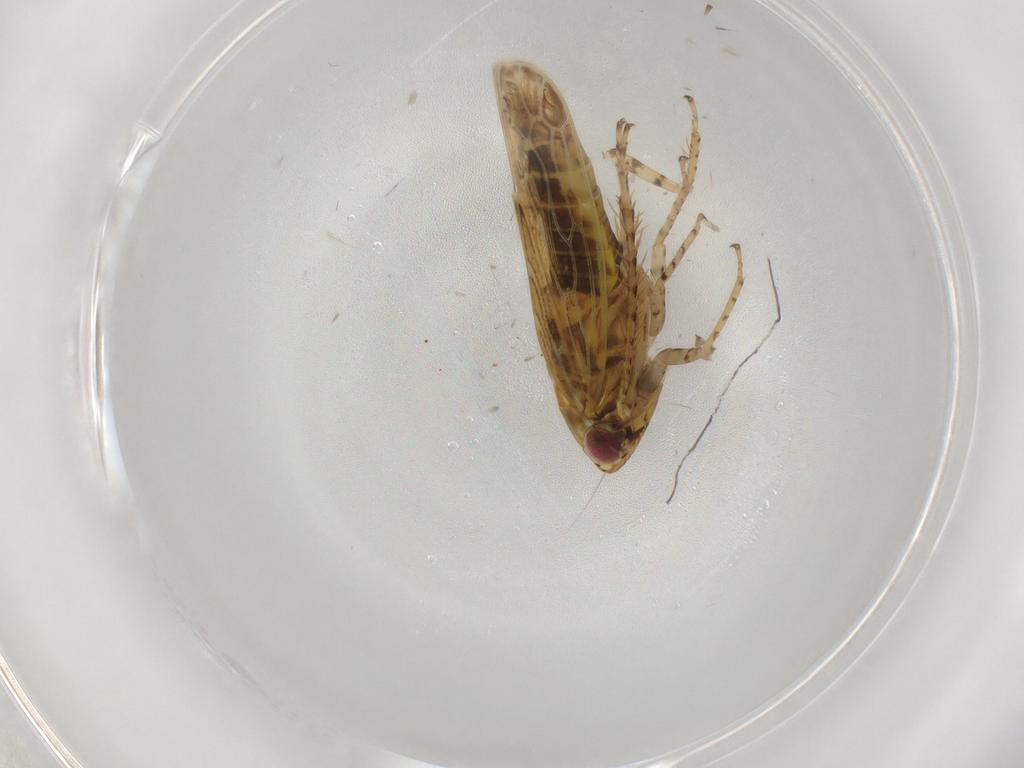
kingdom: Animalia
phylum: Arthropoda
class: Insecta
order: Hemiptera
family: Cicadellidae
